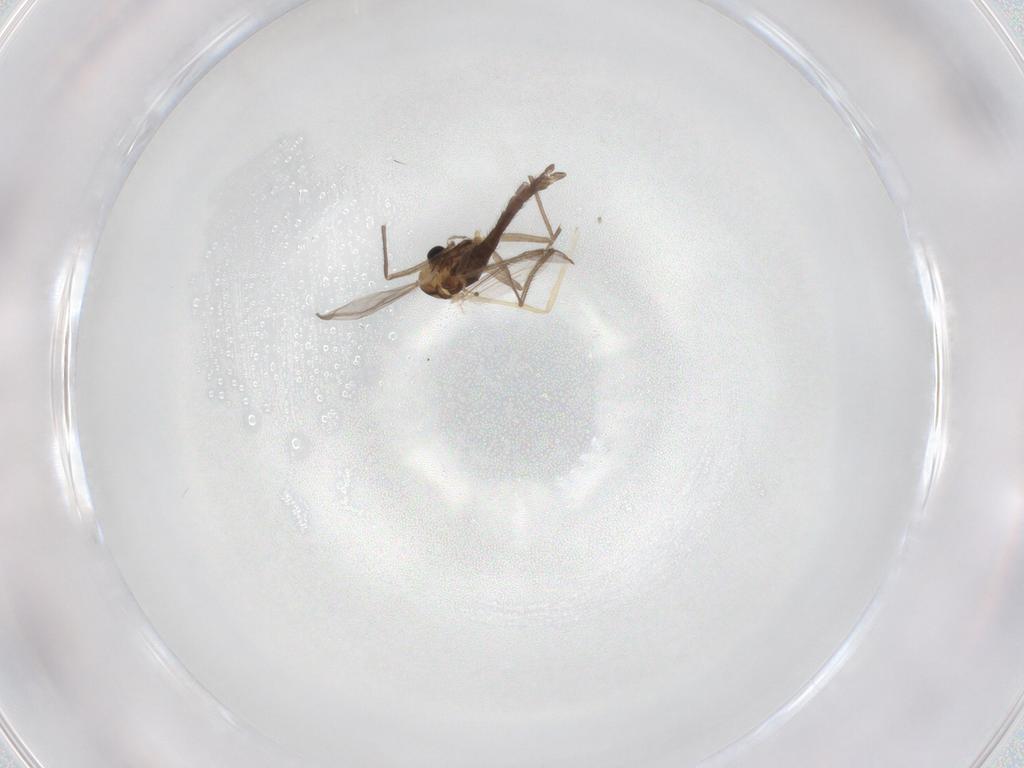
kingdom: Animalia
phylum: Arthropoda
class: Insecta
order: Diptera
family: Chironomidae
